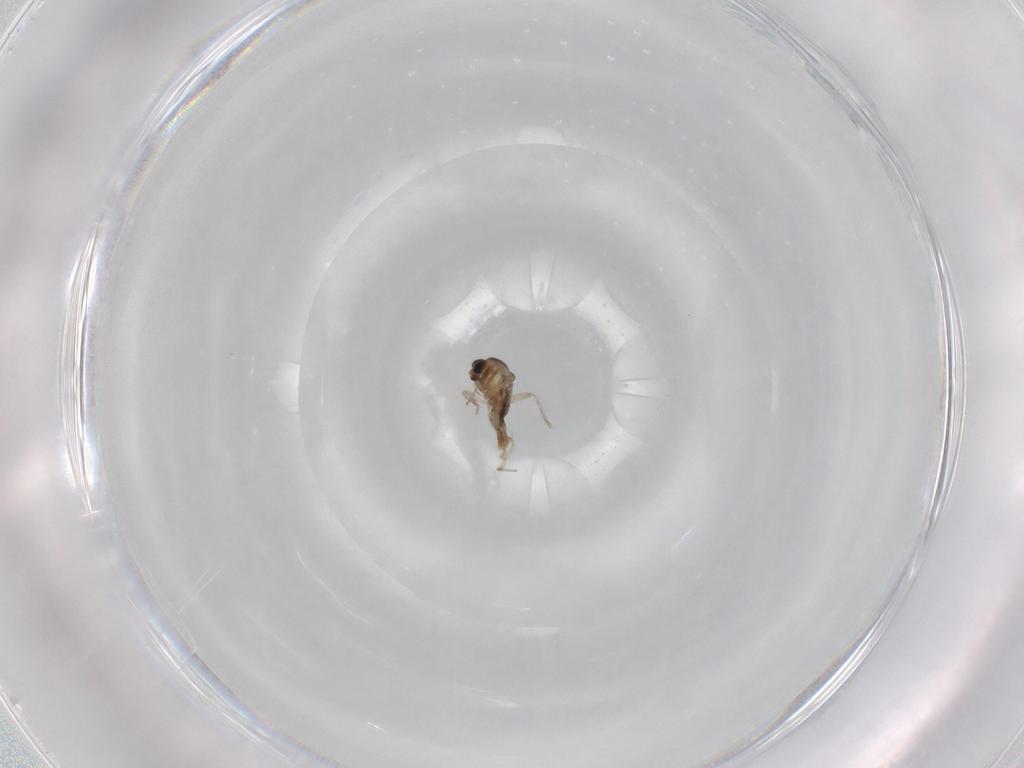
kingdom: Animalia
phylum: Arthropoda
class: Insecta
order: Diptera
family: Cecidomyiidae
